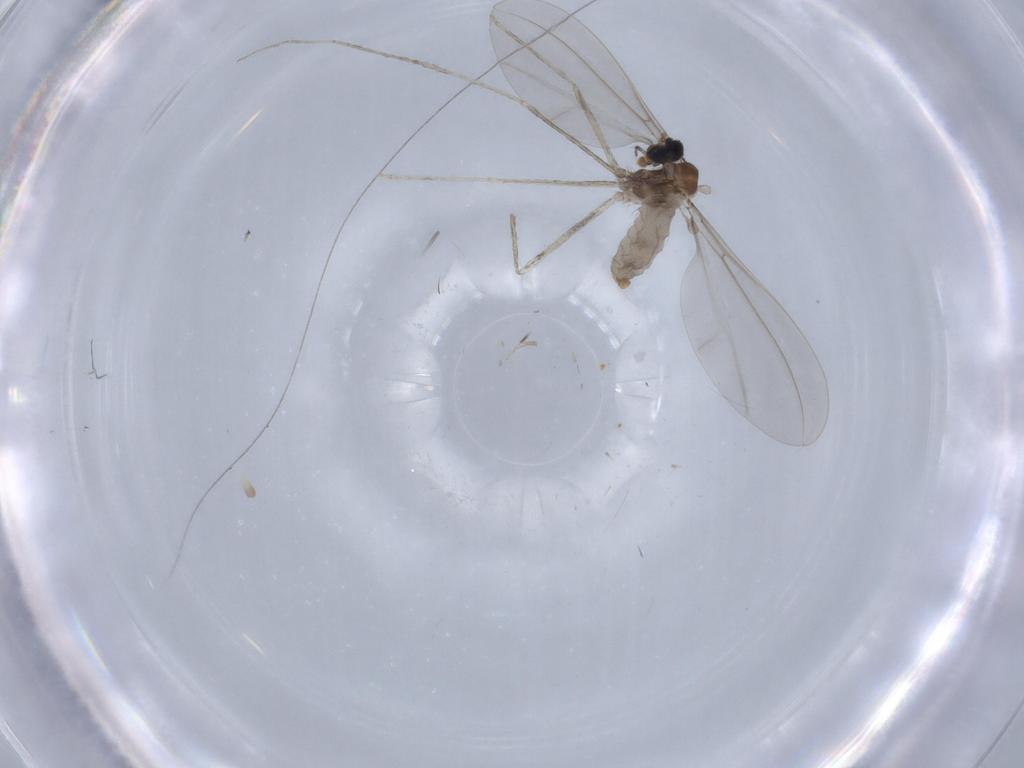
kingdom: Animalia
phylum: Arthropoda
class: Insecta
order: Diptera
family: Cecidomyiidae
